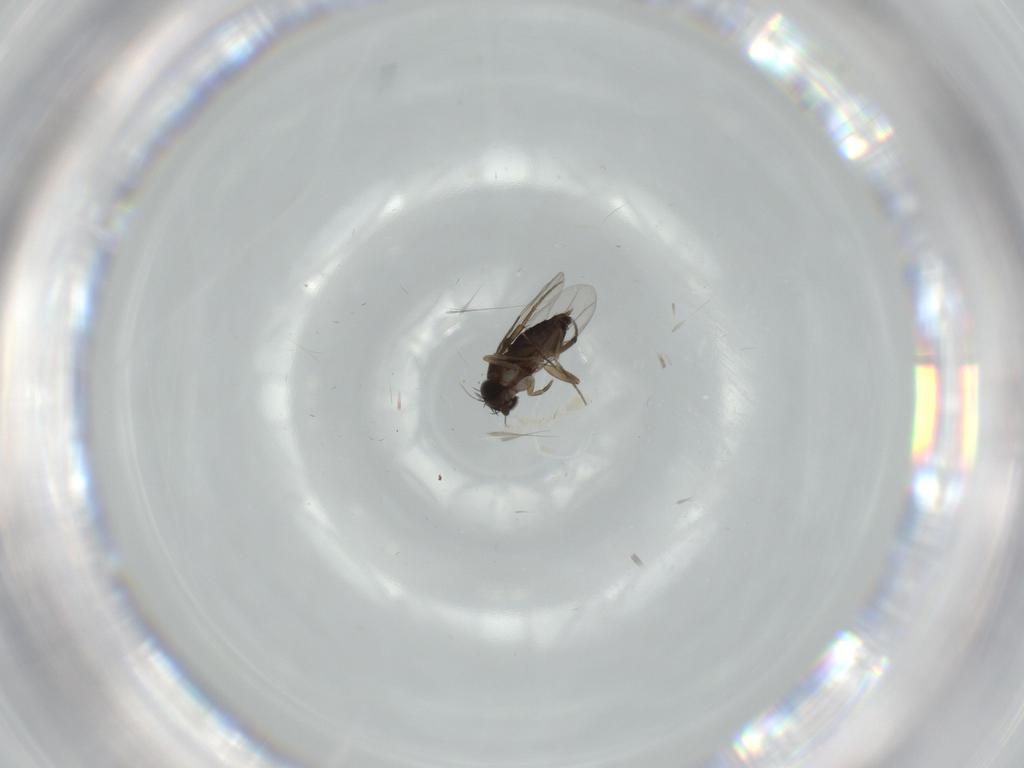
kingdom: Animalia
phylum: Arthropoda
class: Insecta
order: Diptera
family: Phoridae
